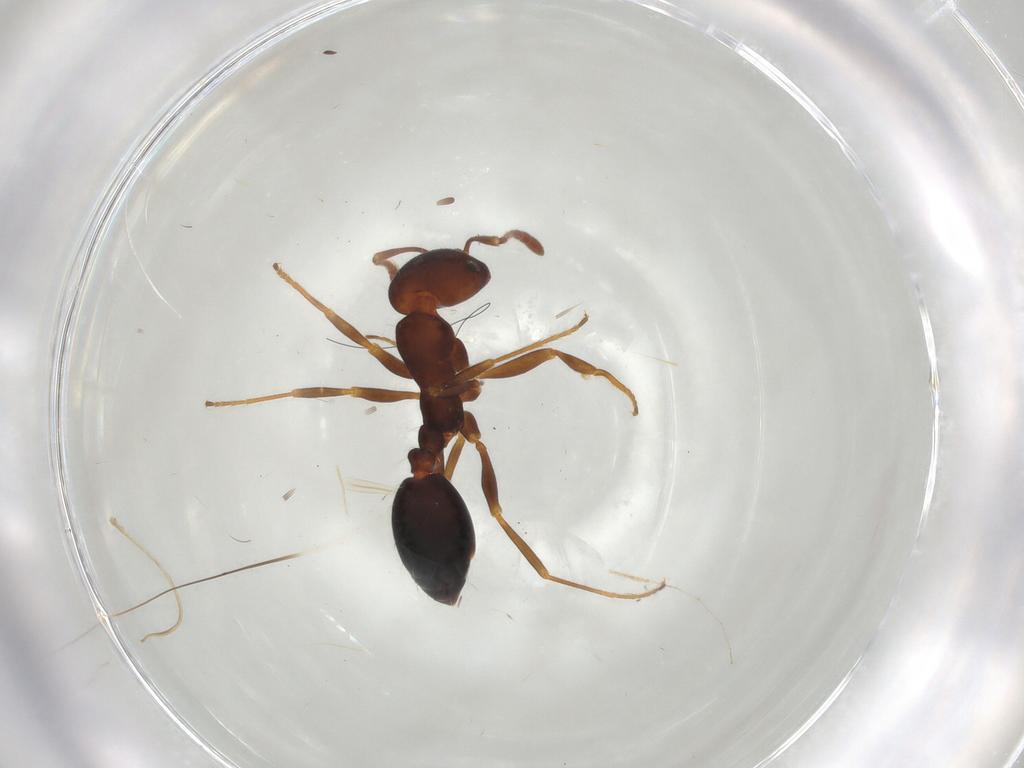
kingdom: Animalia
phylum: Arthropoda
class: Insecta
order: Hymenoptera
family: Formicidae
